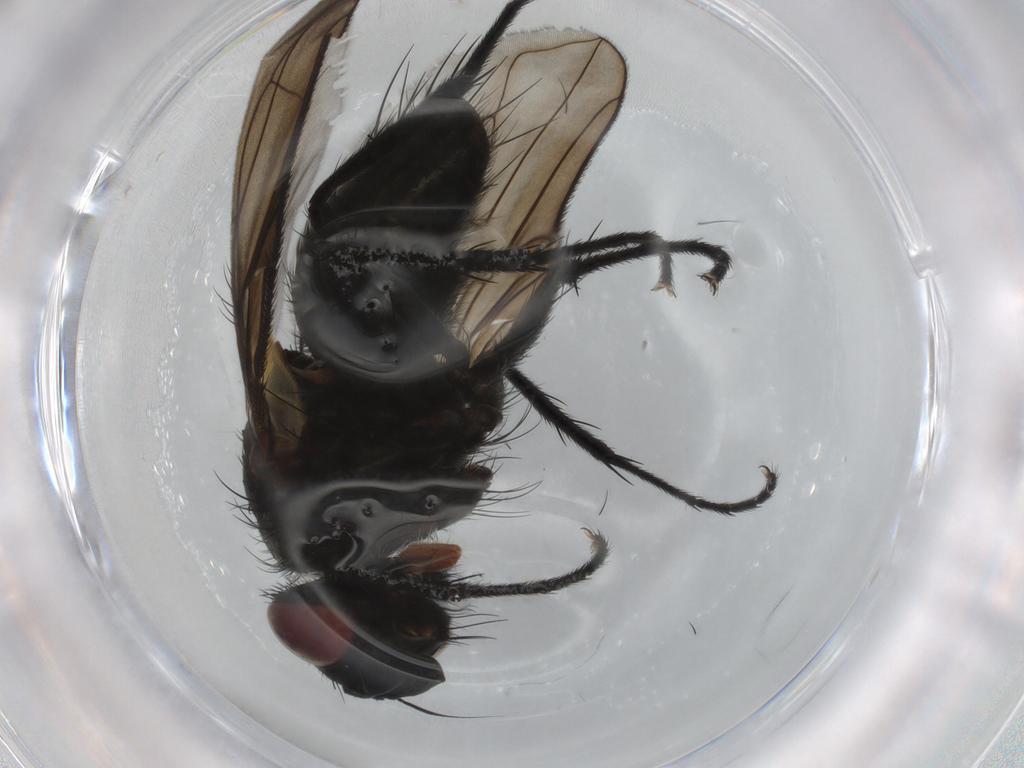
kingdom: Animalia
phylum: Arthropoda
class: Insecta
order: Diptera
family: Tachinidae
